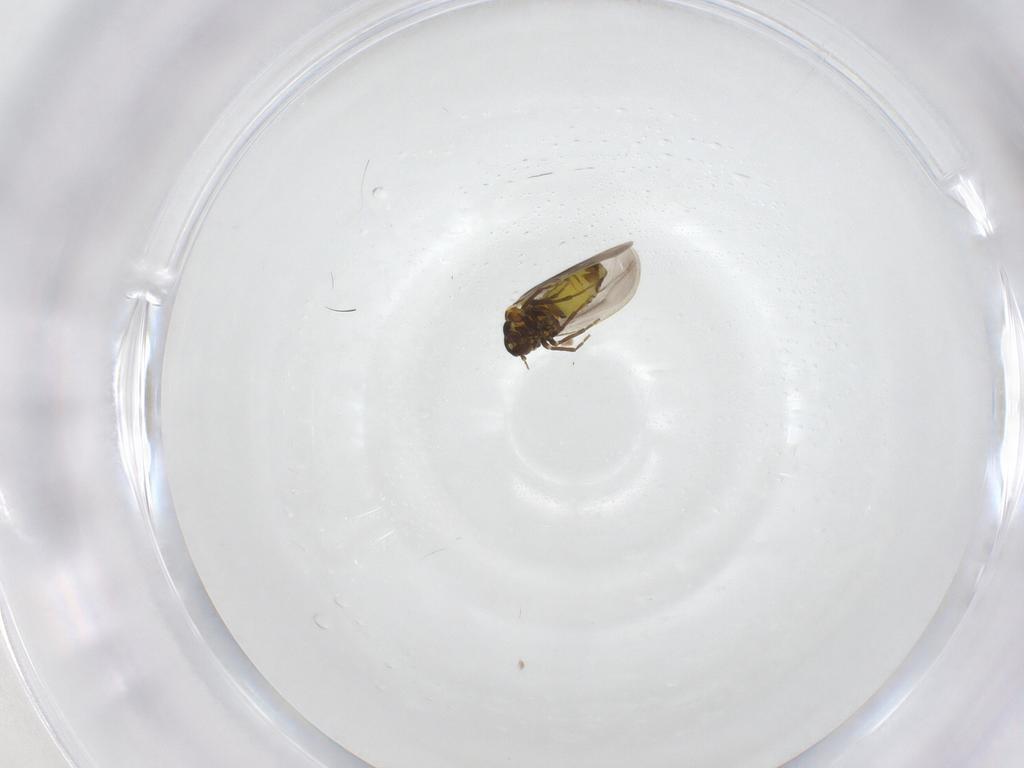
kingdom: Animalia
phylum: Arthropoda
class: Insecta
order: Hemiptera
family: Aleyrodidae
